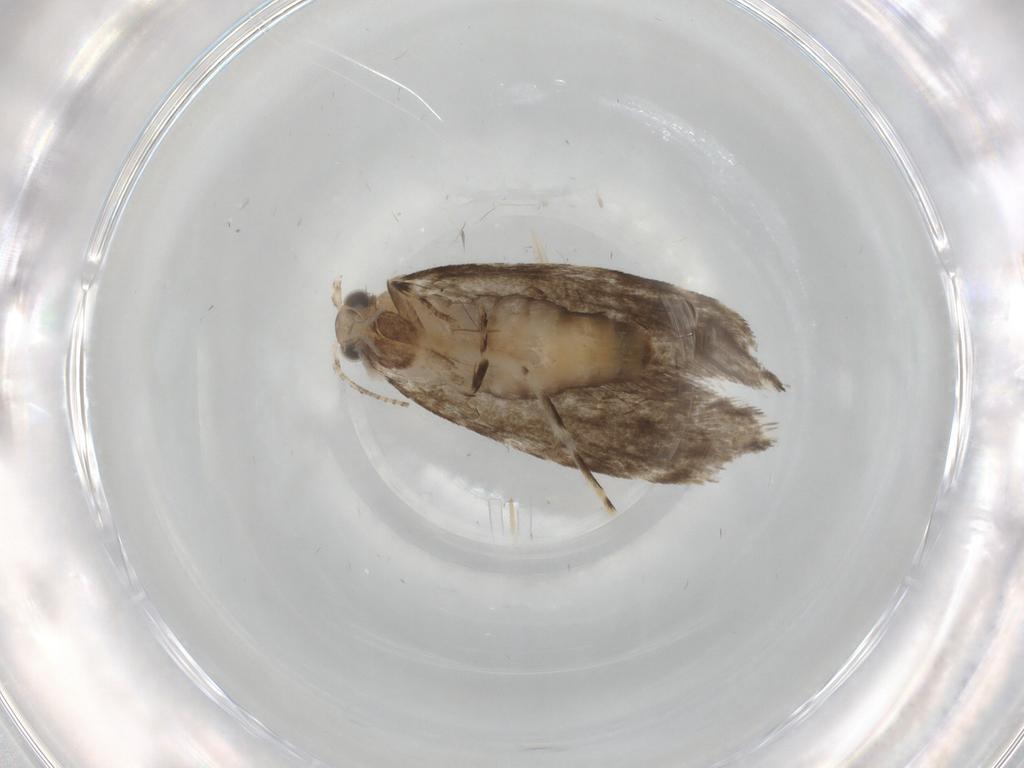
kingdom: Animalia
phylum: Arthropoda
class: Insecta
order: Lepidoptera
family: Tineidae
